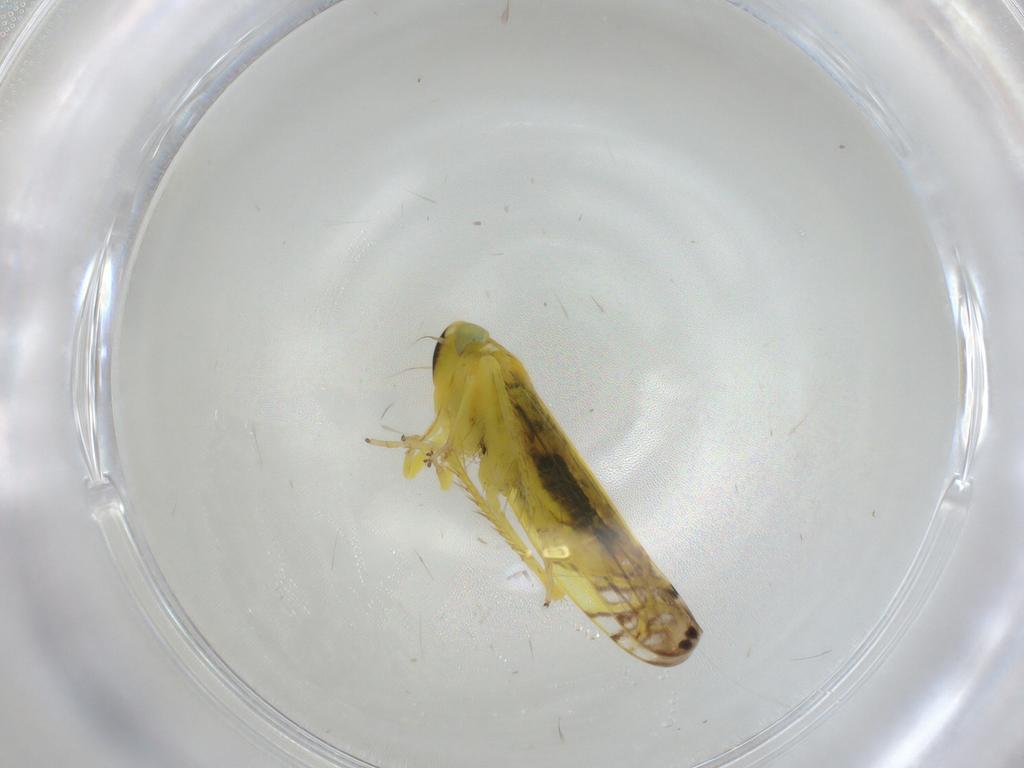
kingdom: Animalia
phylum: Arthropoda
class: Insecta
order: Hemiptera
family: Cicadellidae
